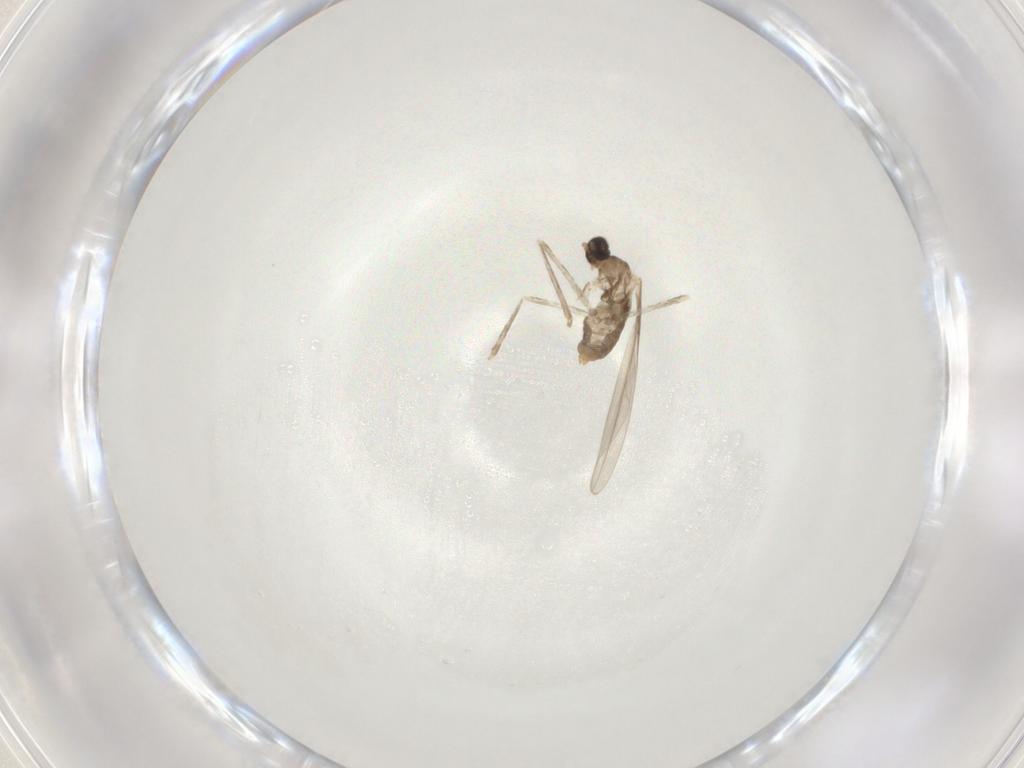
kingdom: Animalia
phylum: Arthropoda
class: Insecta
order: Diptera
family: Cecidomyiidae
